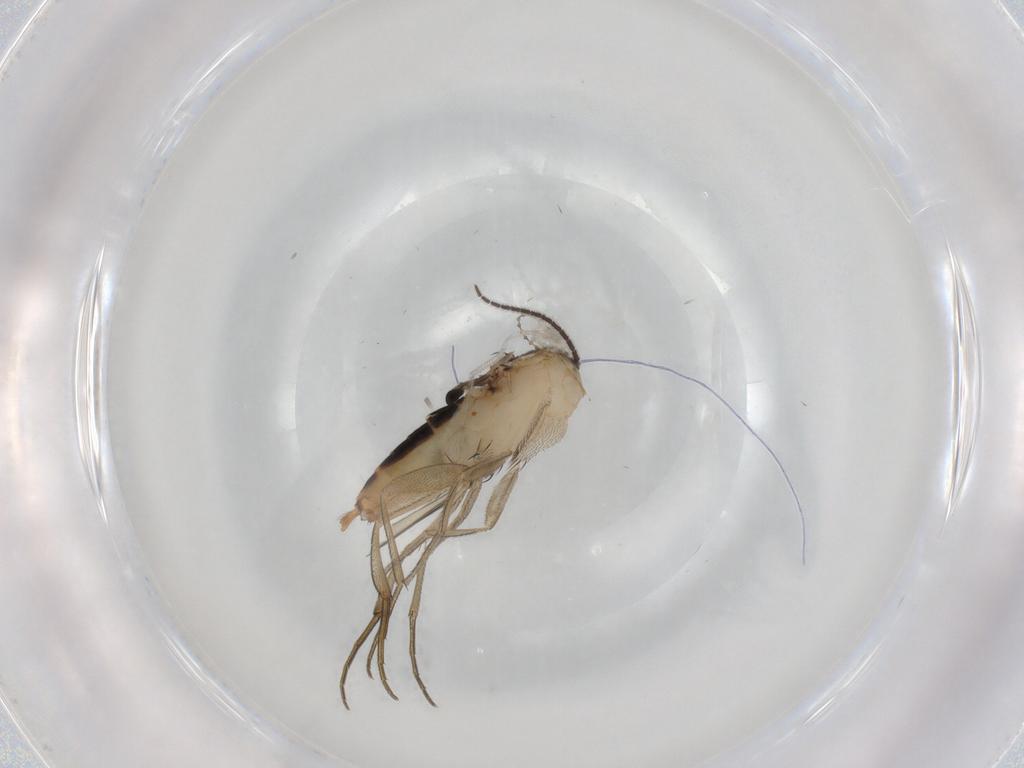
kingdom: Animalia
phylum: Arthropoda
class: Insecta
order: Diptera
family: Phoridae
